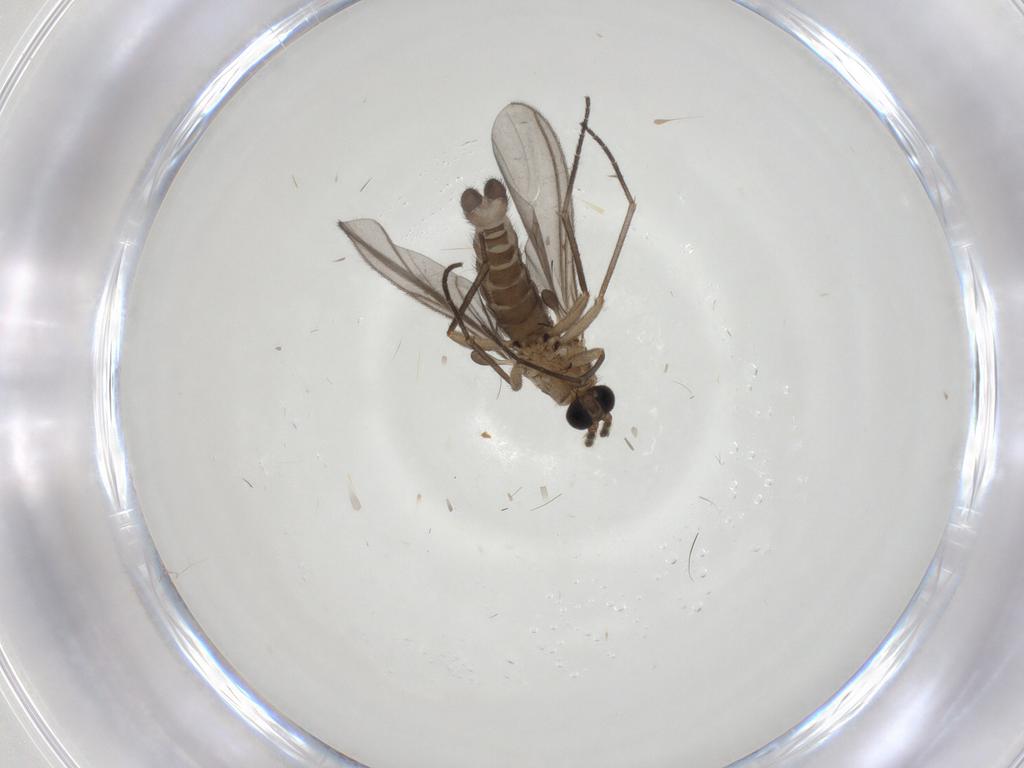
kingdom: Animalia
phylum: Arthropoda
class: Insecta
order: Diptera
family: Sciaridae
